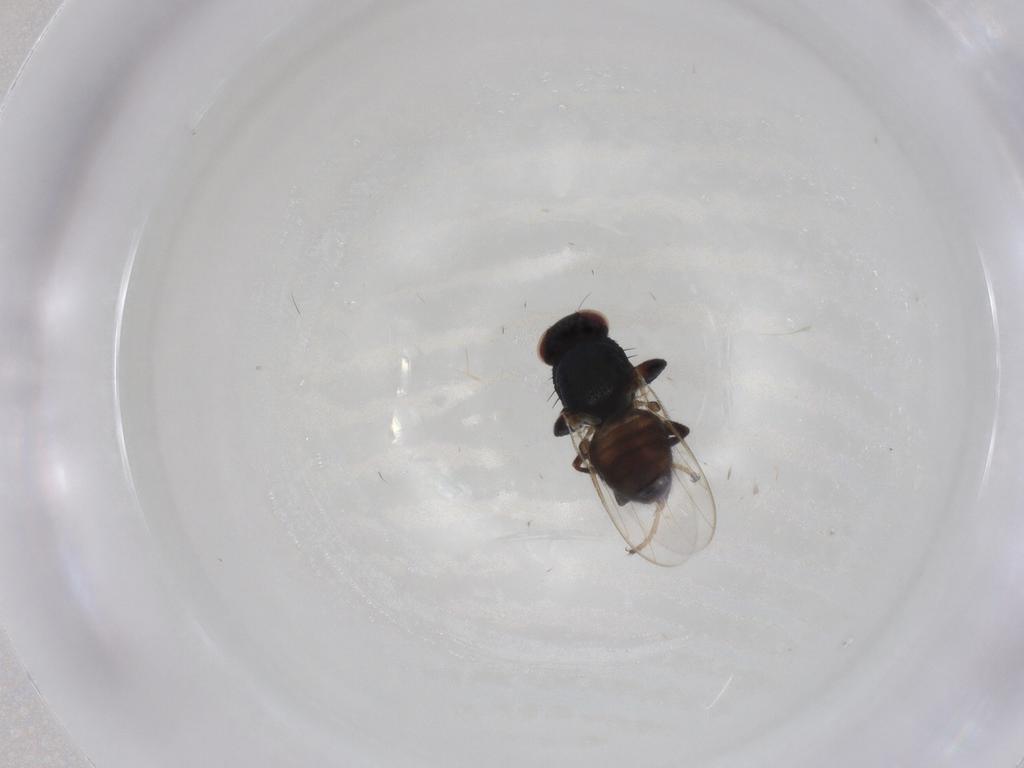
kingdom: Animalia
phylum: Arthropoda
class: Insecta
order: Diptera
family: Chloropidae
